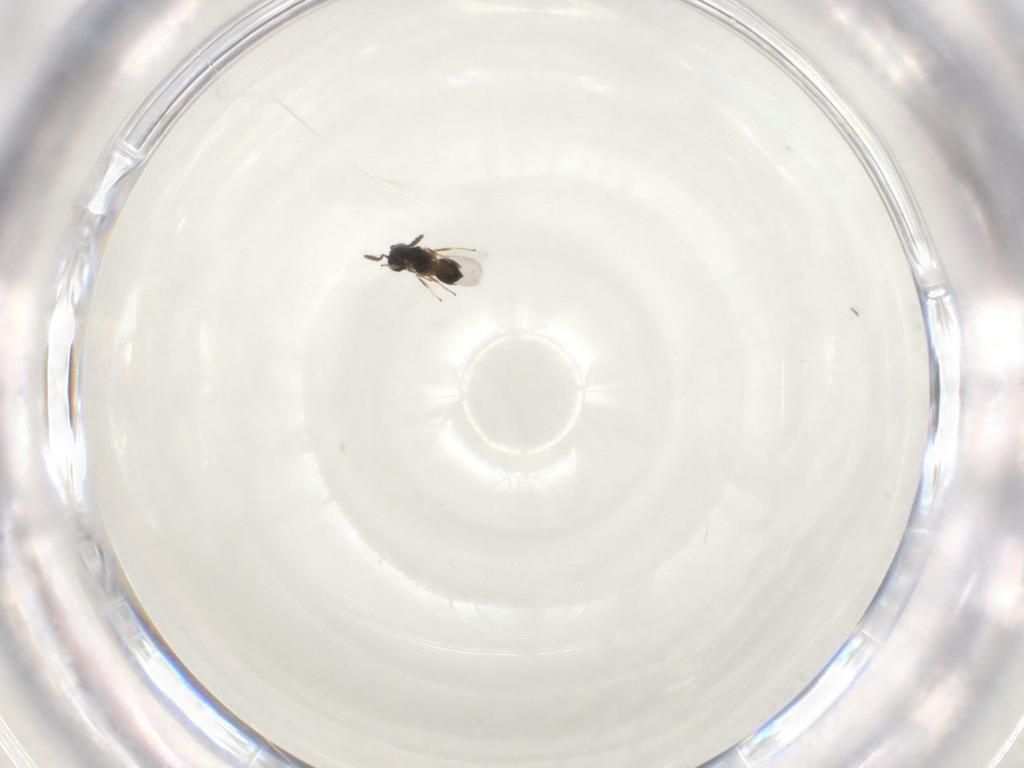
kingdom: Animalia
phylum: Arthropoda
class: Insecta
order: Hymenoptera
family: Scelionidae
